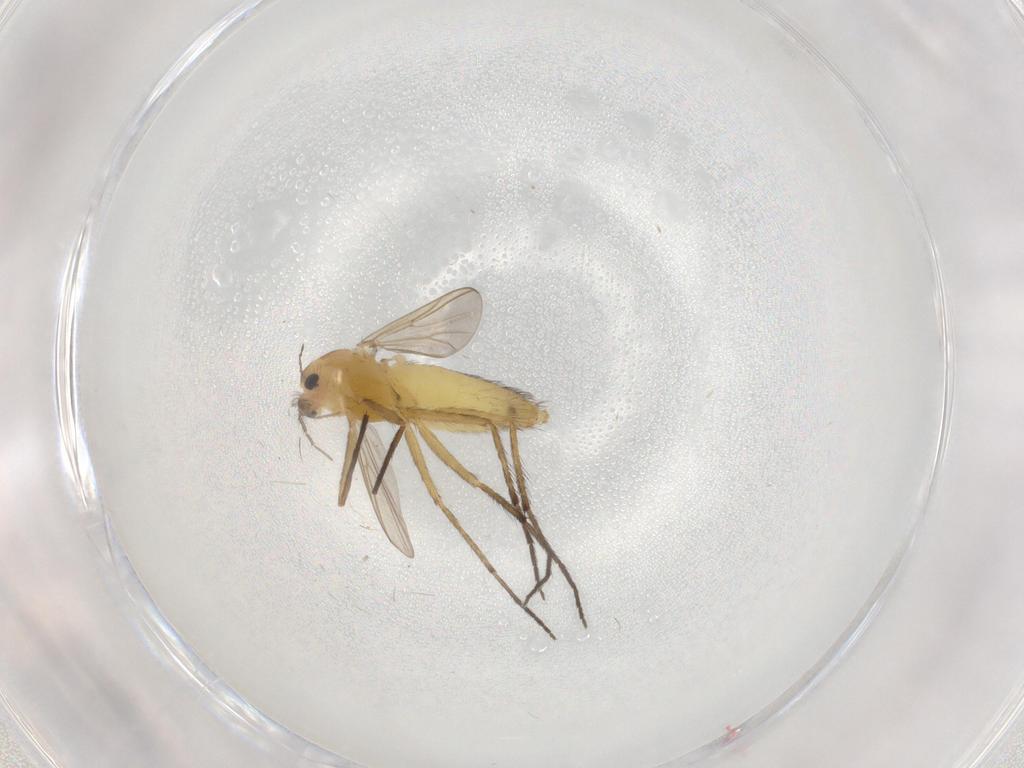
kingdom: Animalia
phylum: Arthropoda
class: Insecta
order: Diptera
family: Chironomidae
